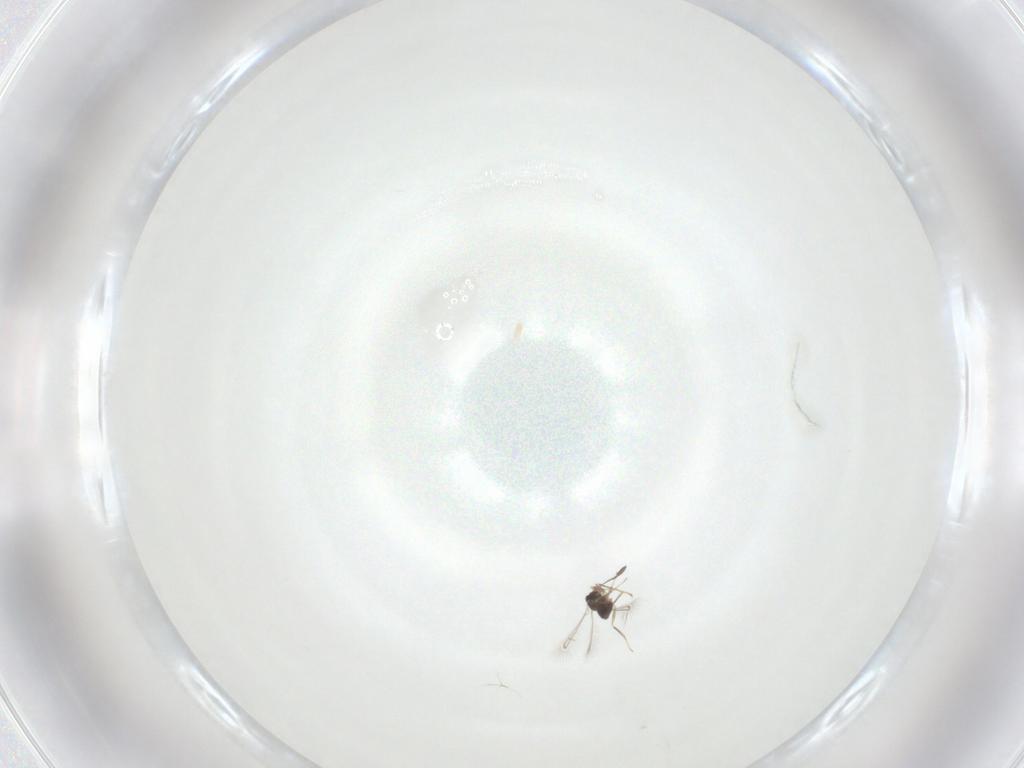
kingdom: Animalia
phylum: Arthropoda
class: Insecta
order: Hymenoptera
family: Mymaridae
